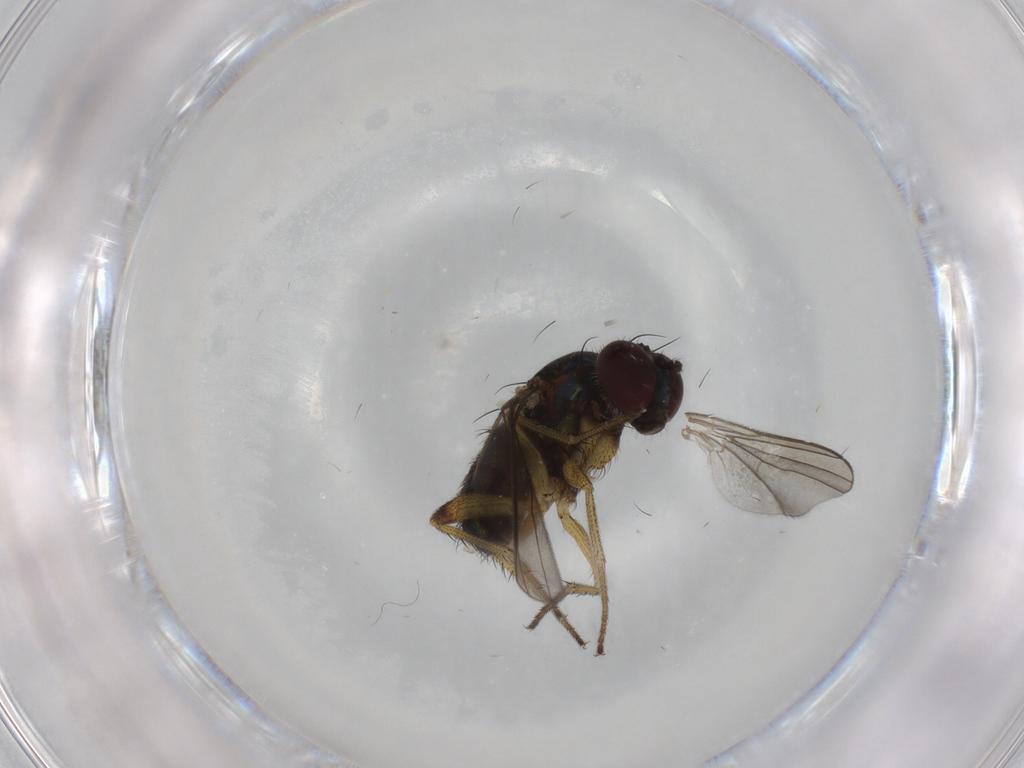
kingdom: Animalia
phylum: Arthropoda
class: Insecta
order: Diptera
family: Dolichopodidae
